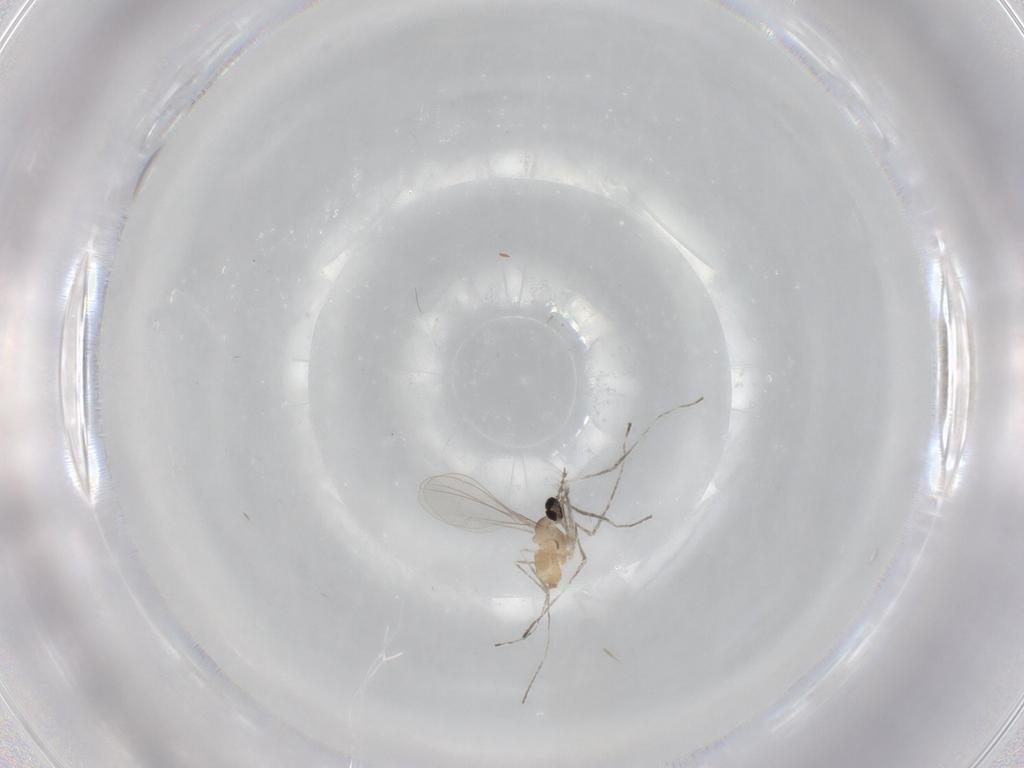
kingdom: Animalia
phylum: Arthropoda
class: Insecta
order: Diptera
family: Cecidomyiidae
